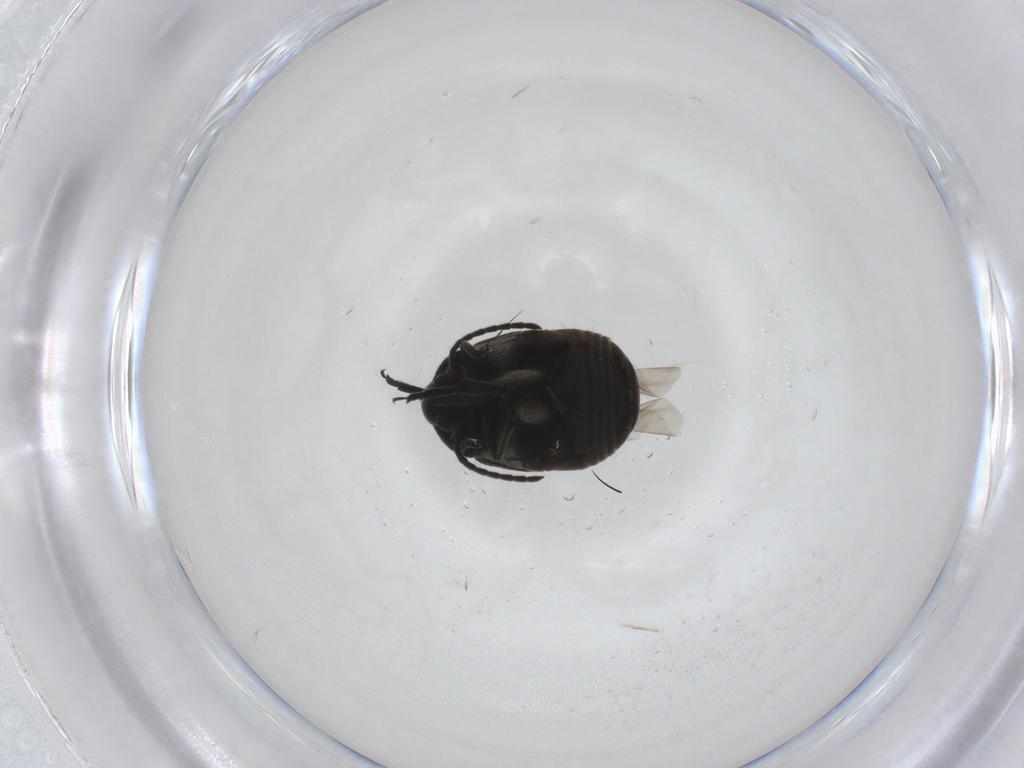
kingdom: Animalia
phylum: Arthropoda
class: Insecta
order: Coleoptera
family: Chrysomelidae
